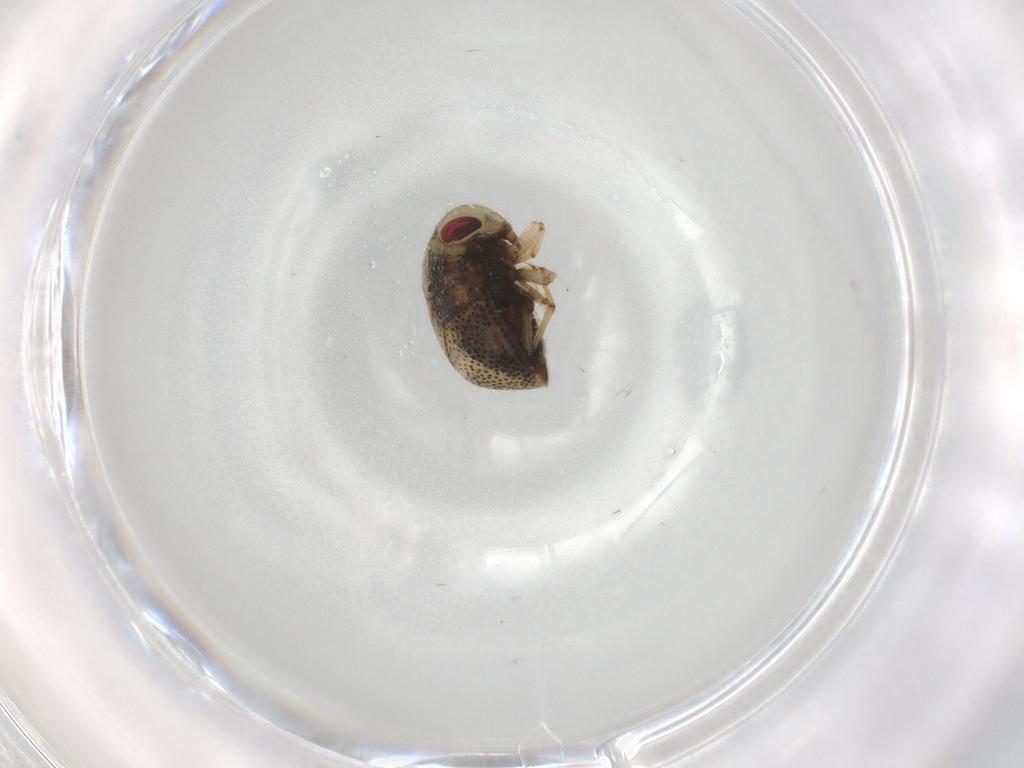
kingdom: Animalia
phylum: Arthropoda
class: Insecta
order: Hemiptera
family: Pleidae
